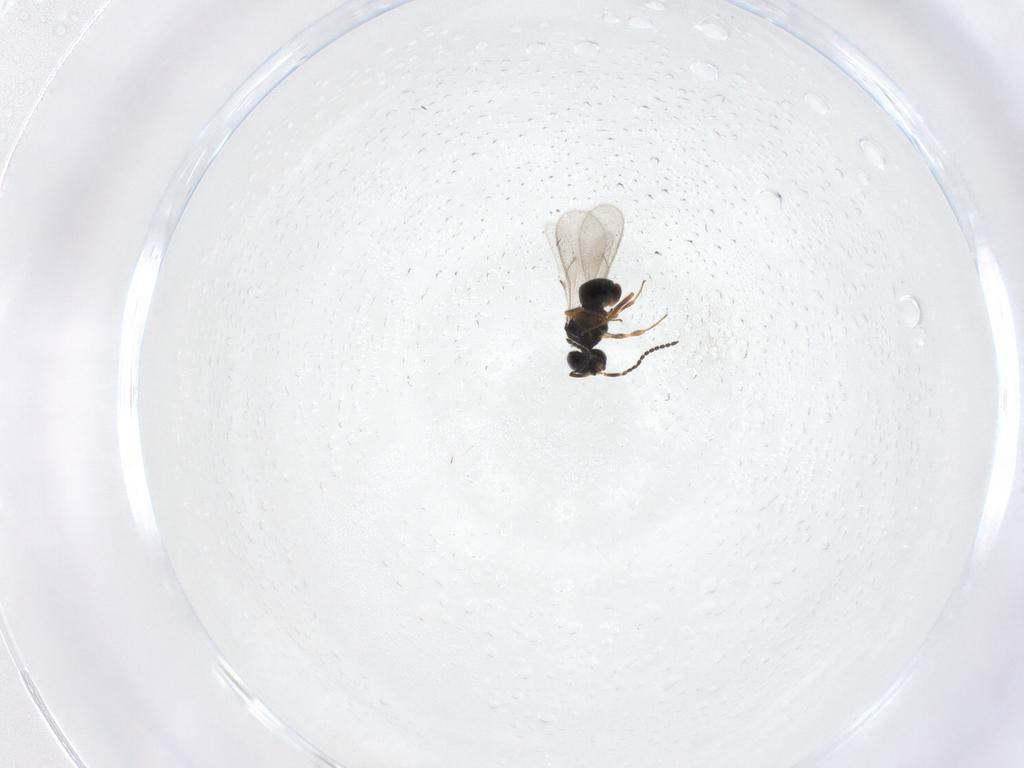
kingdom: Animalia
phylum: Arthropoda
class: Insecta
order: Hymenoptera
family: Scelionidae
